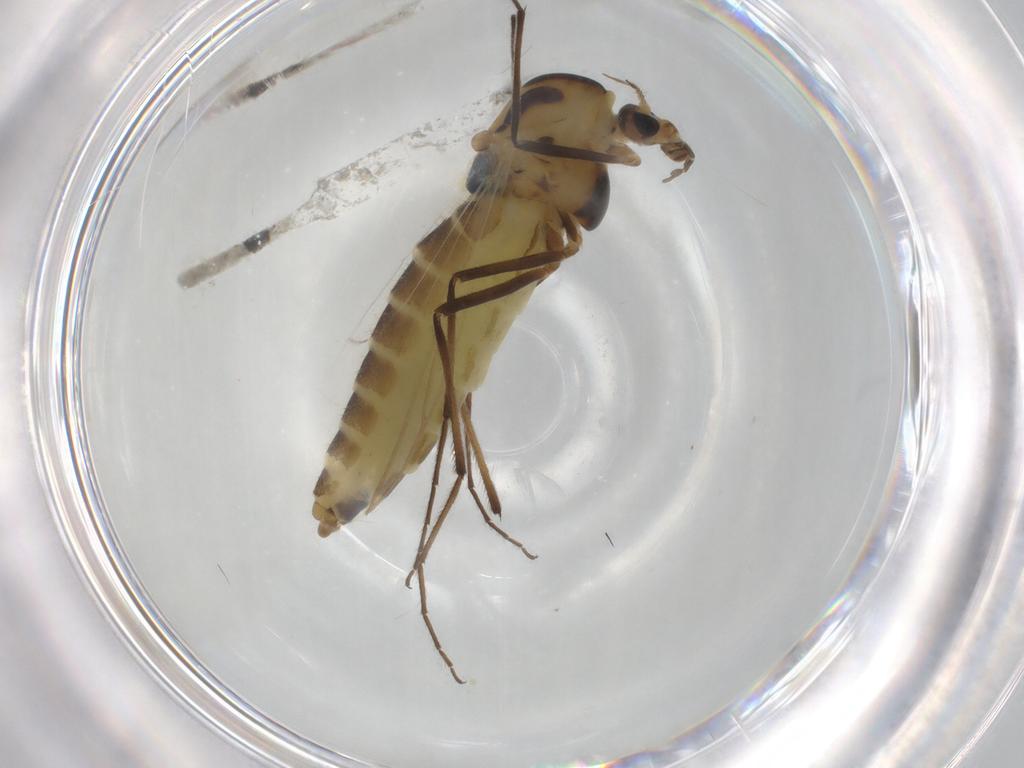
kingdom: Animalia
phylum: Arthropoda
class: Insecta
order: Diptera
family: Chironomidae
